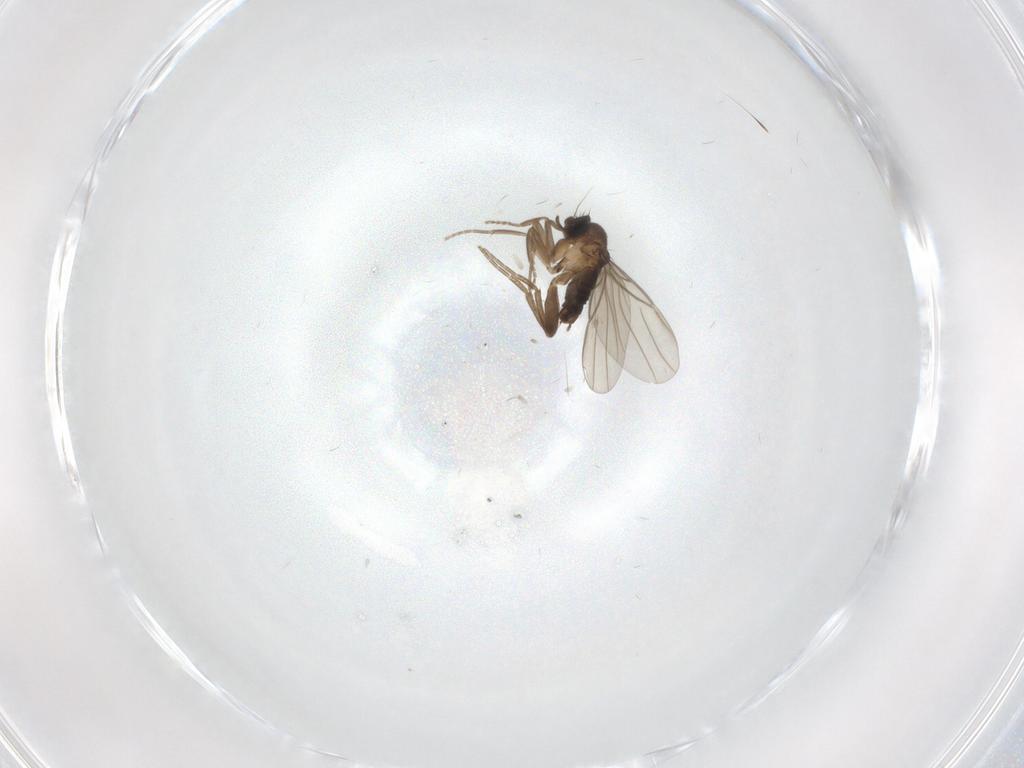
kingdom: Animalia
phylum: Arthropoda
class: Insecta
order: Diptera
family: Ceratopogonidae
